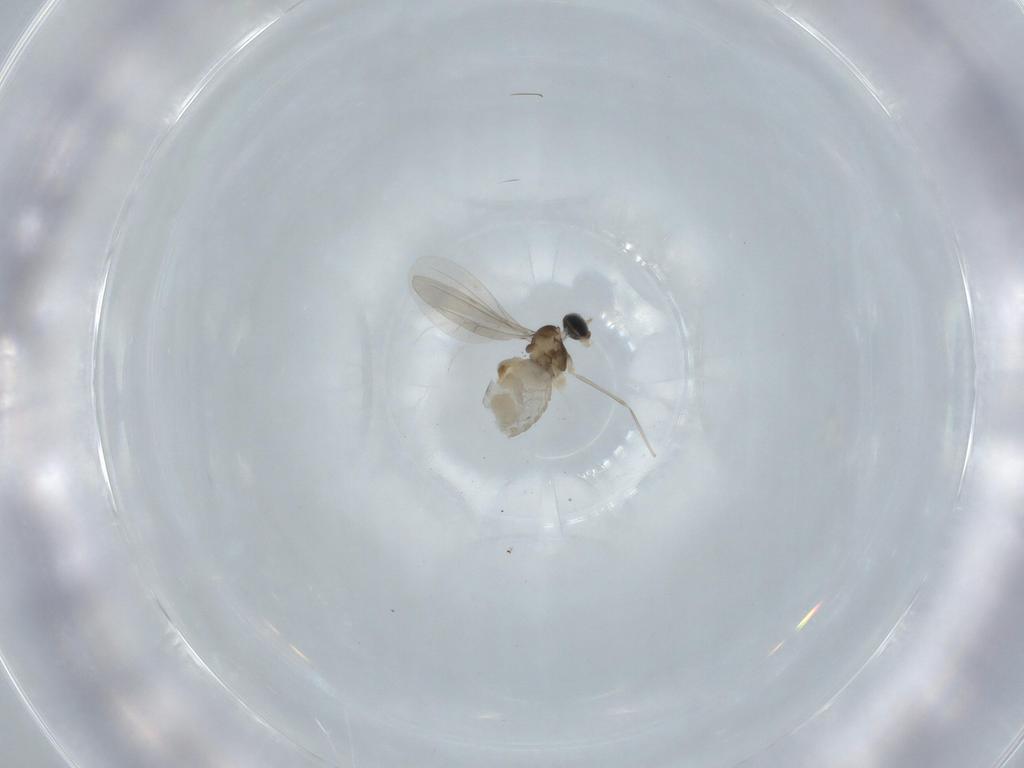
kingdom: Animalia
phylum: Arthropoda
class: Insecta
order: Diptera
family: Cecidomyiidae
